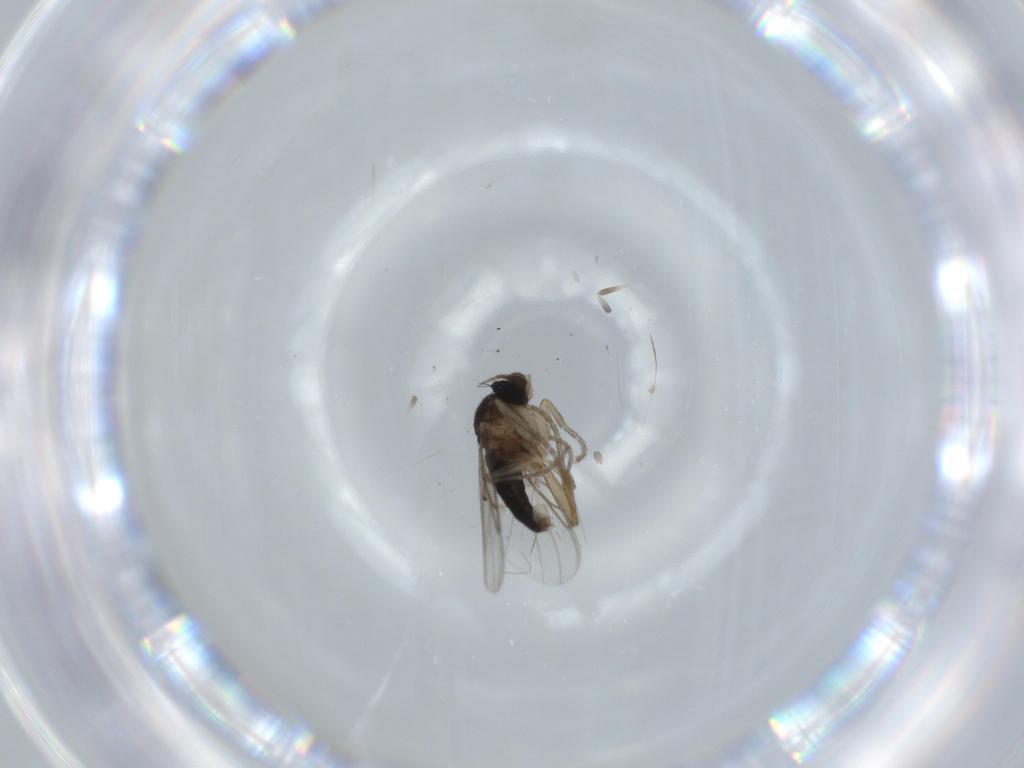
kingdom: Animalia
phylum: Arthropoda
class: Insecta
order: Diptera
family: Phoridae
